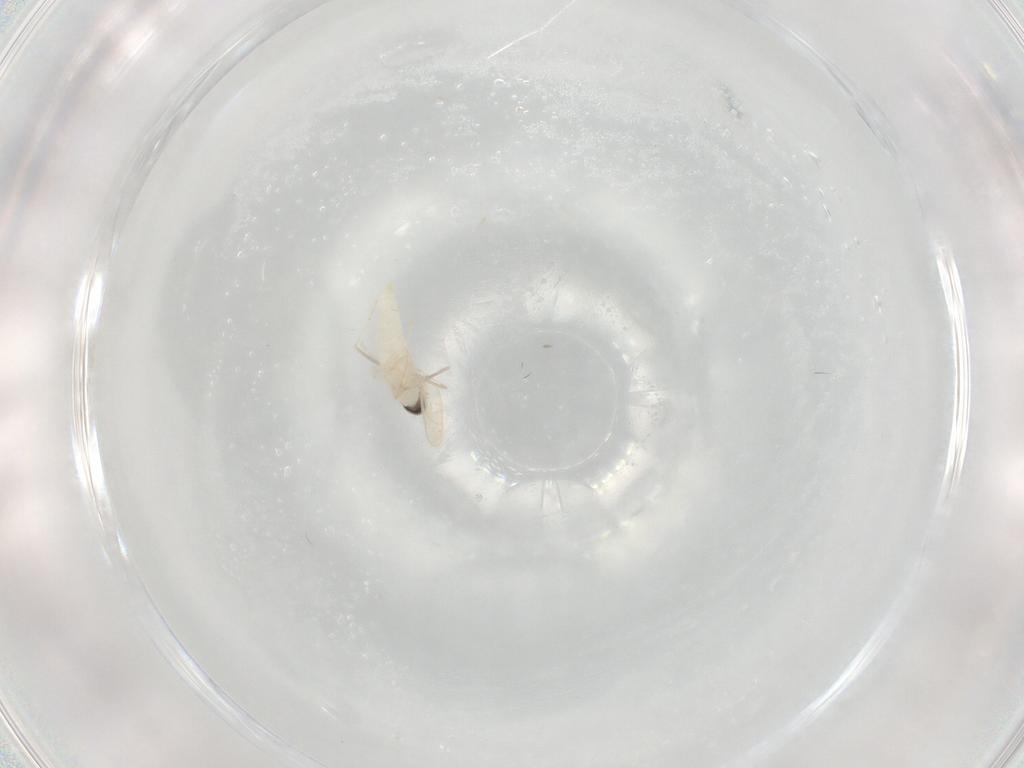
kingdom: Animalia
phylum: Arthropoda
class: Insecta
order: Diptera
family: Cecidomyiidae
